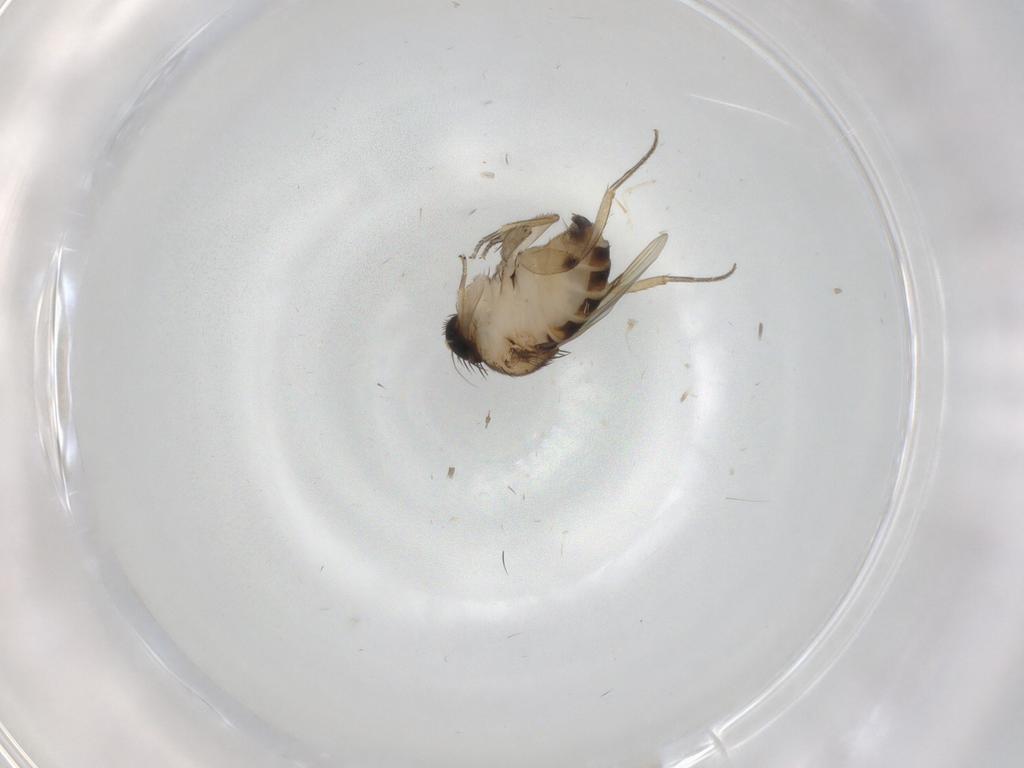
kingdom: Animalia
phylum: Arthropoda
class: Insecta
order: Diptera
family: Phoridae
